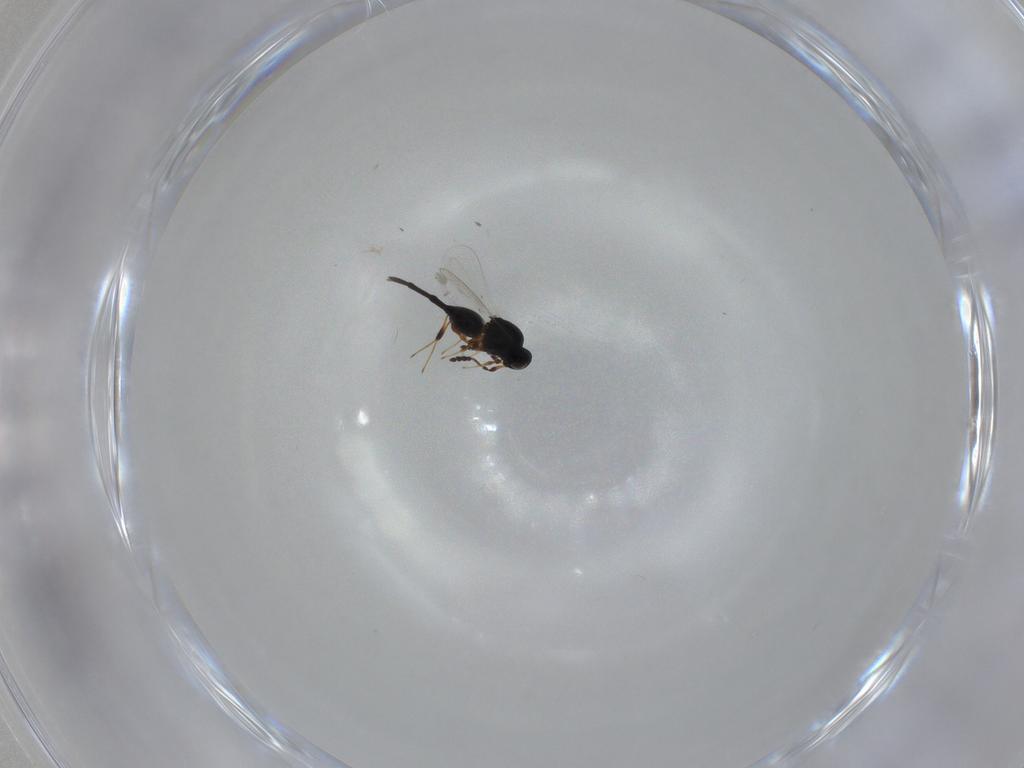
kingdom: Animalia
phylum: Arthropoda
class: Insecta
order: Hymenoptera
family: Platygastridae
